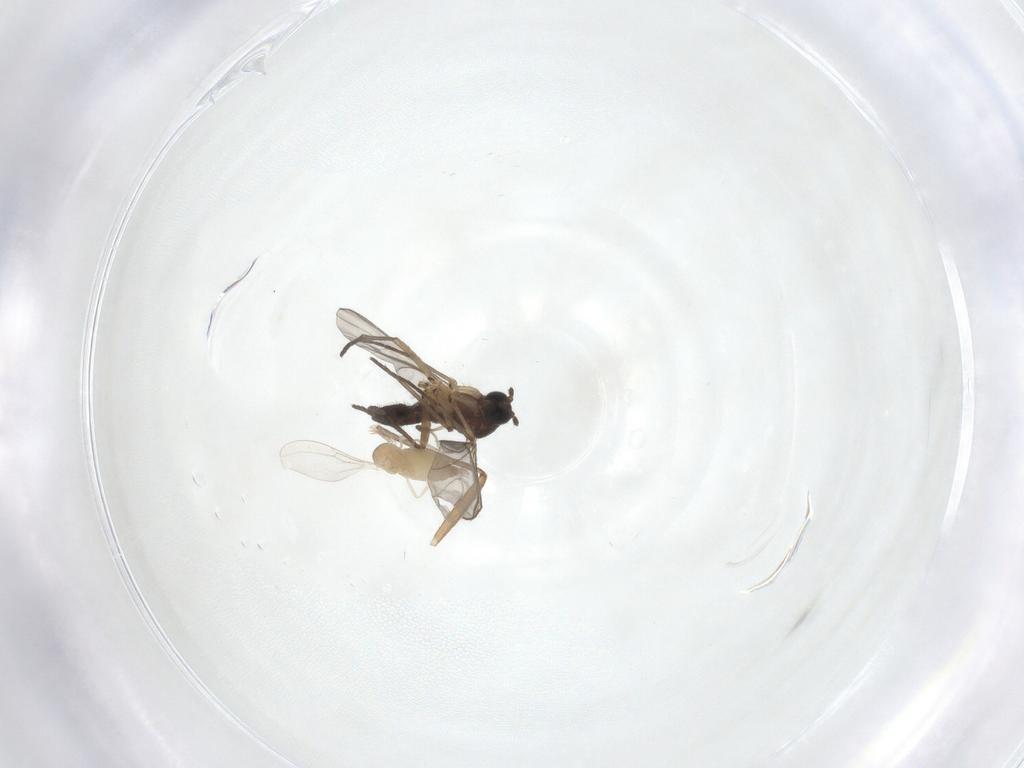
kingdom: Animalia
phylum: Arthropoda
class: Insecta
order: Diptera
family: Sciaridae
